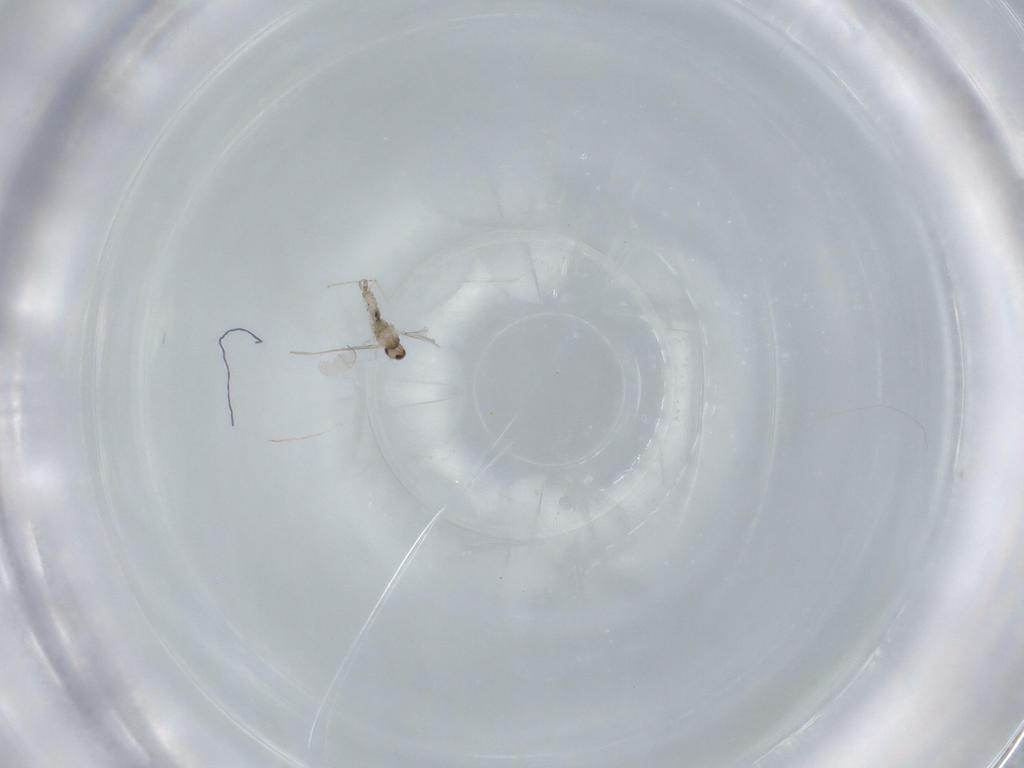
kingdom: Animalia
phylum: Arthropoda
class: Insecta
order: Diptera
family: Cecidomyiidae
